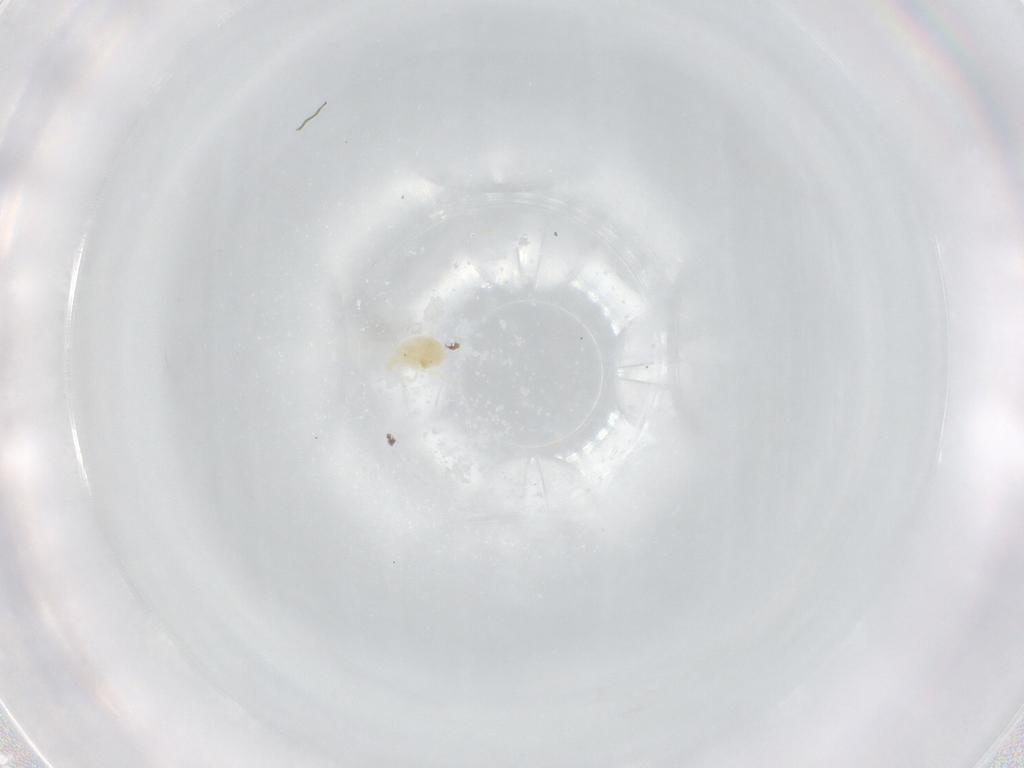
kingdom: Animalia
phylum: Arthropoda
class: Arachnida
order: Trombidiformes
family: Eupodidae
